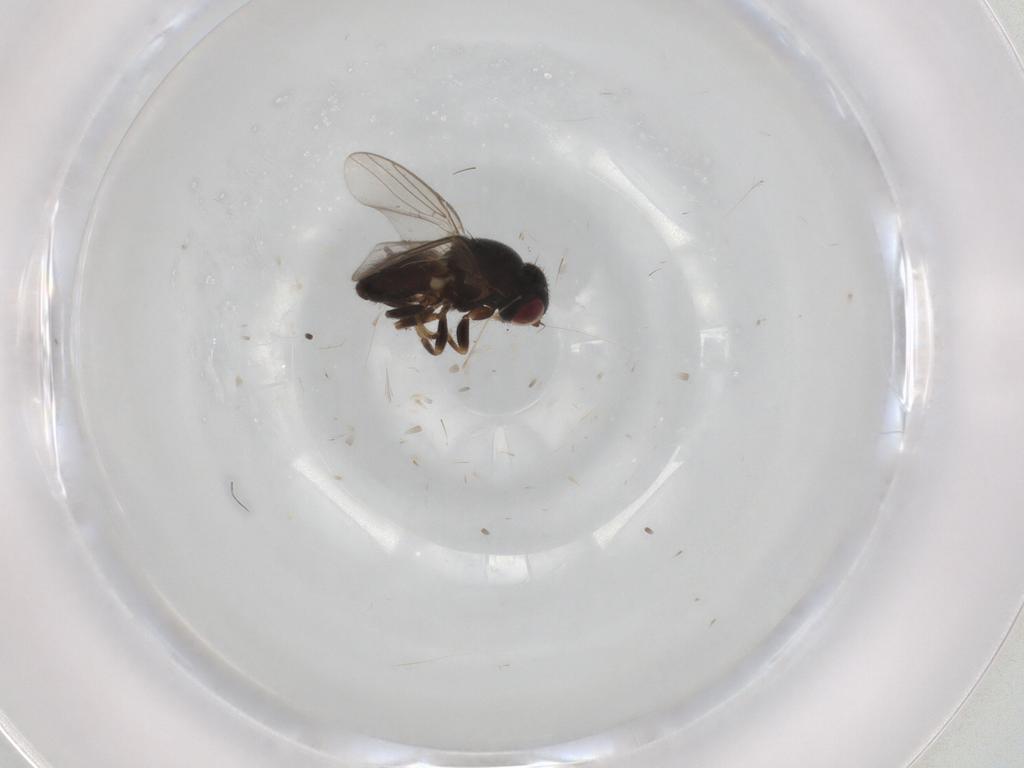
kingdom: Animalia
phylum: Arthropoda
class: Insecta
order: Diptera
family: Chloropidae
